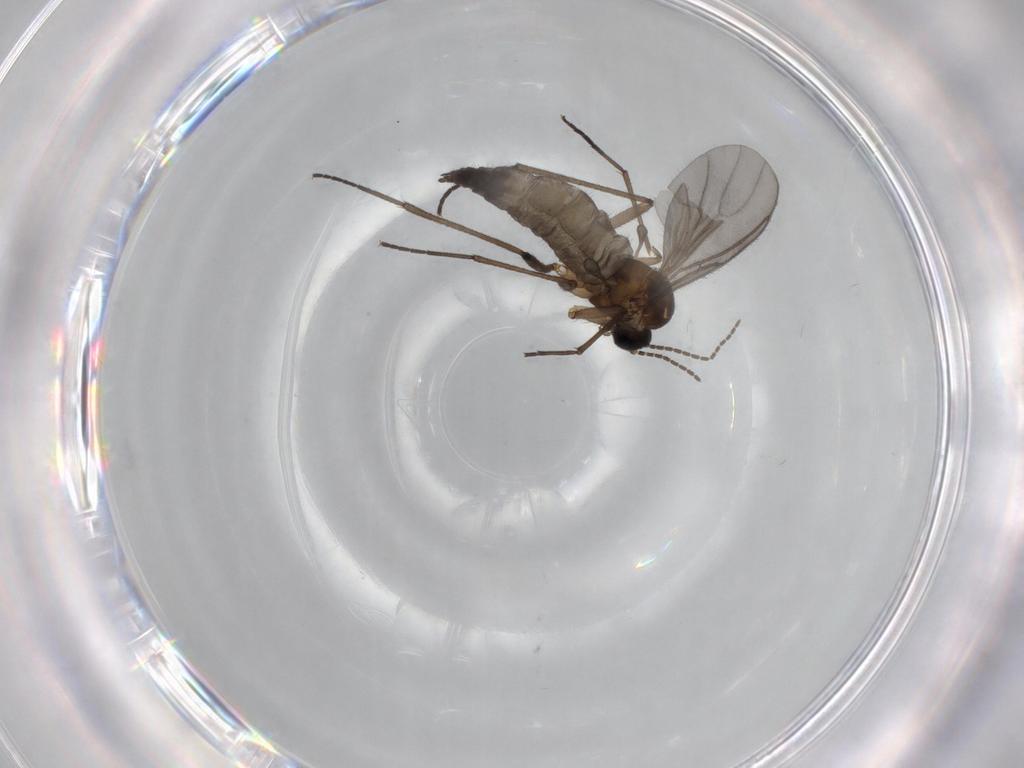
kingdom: Animalia
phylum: Arthropoda
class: Insecta
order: Diptera
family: Sciaridae
